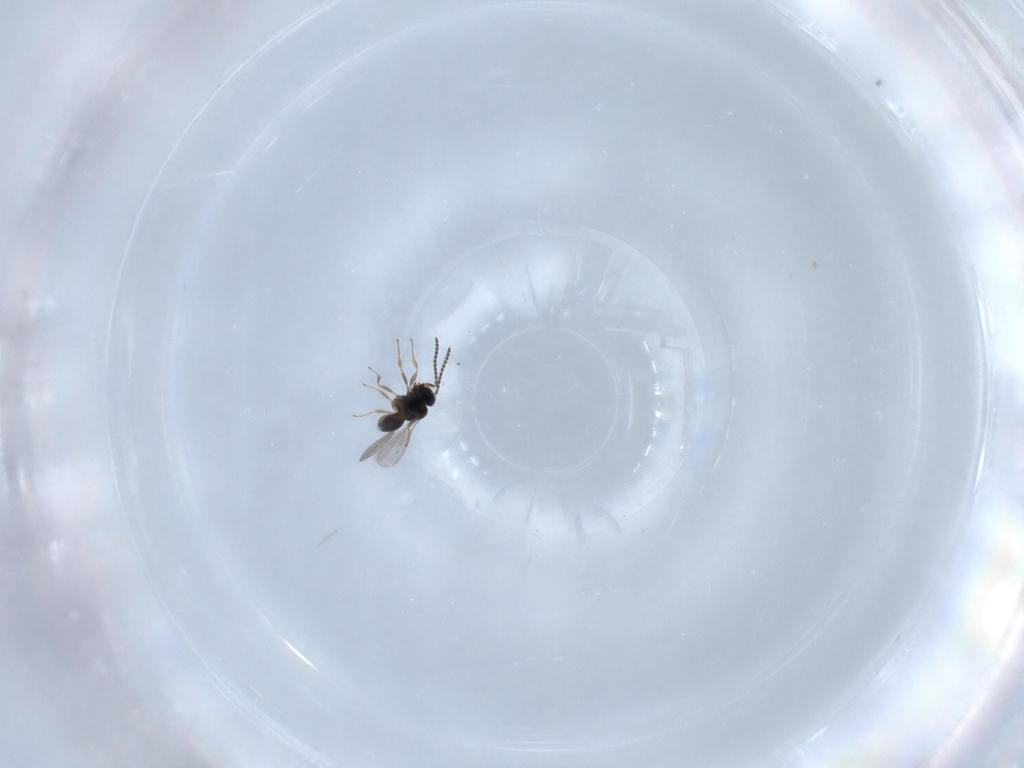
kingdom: Animalia
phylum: Arthropoda
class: Insecta
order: Hymenoptera
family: Scelionidae
